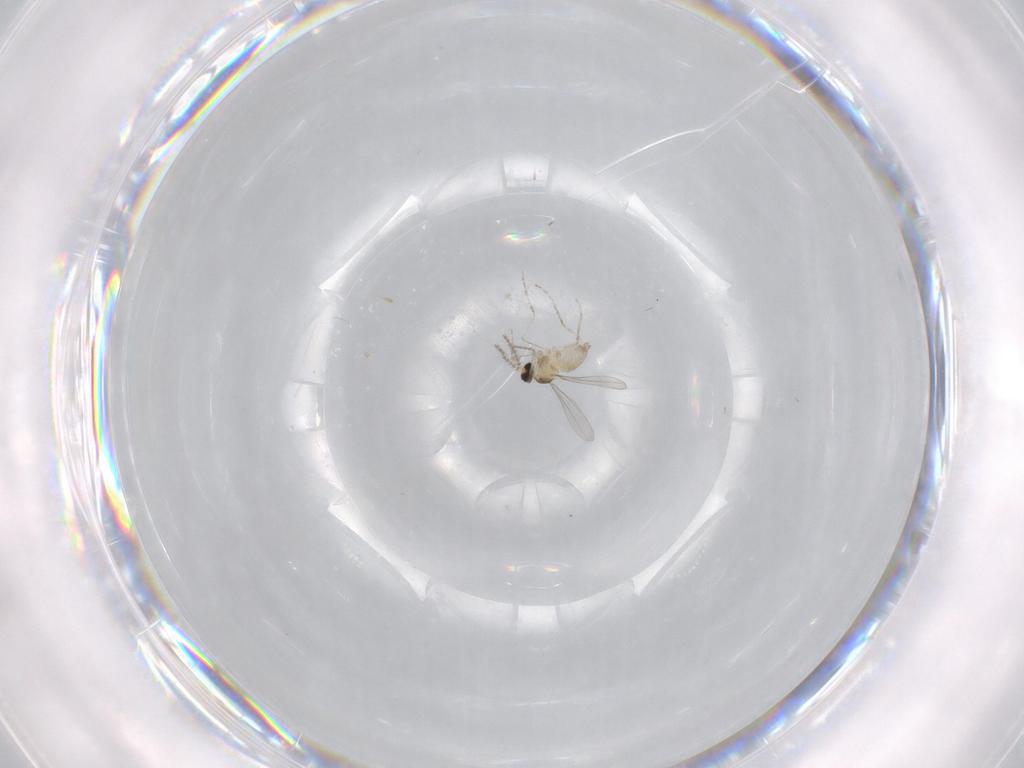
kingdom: Animalia
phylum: Arthropoda
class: Insecta
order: Diptera
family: Cecidomyiidae
